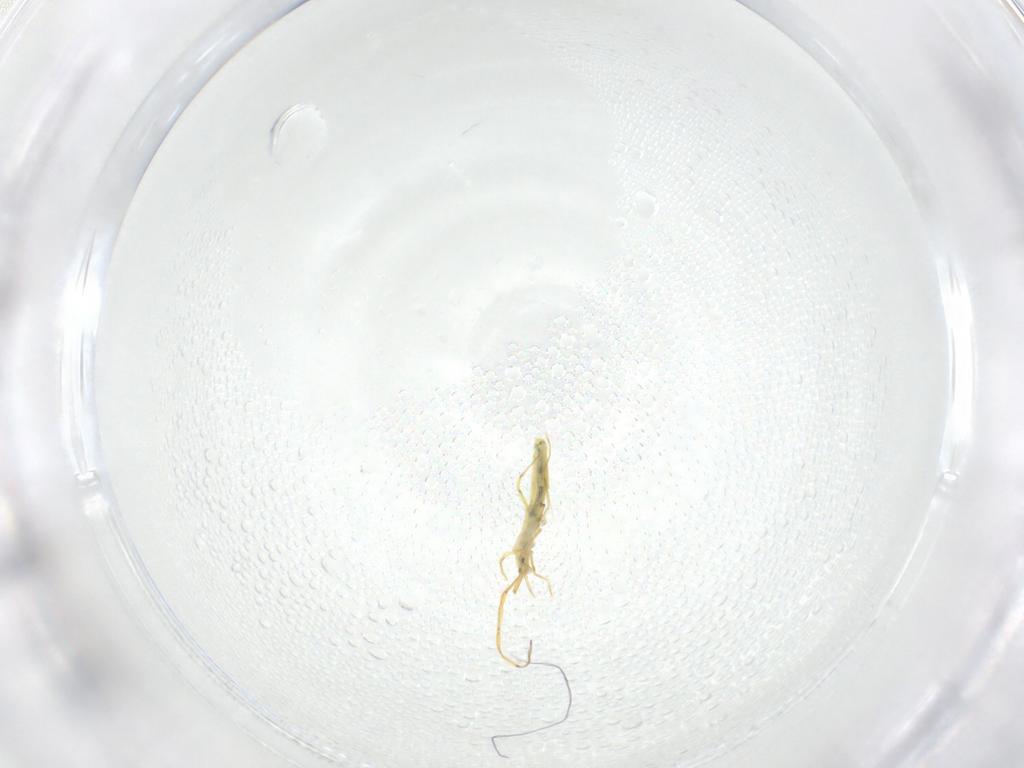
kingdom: Animalia
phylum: Arthropoda
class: Collembola
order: Entomobryomorpha
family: Entomobryidae
